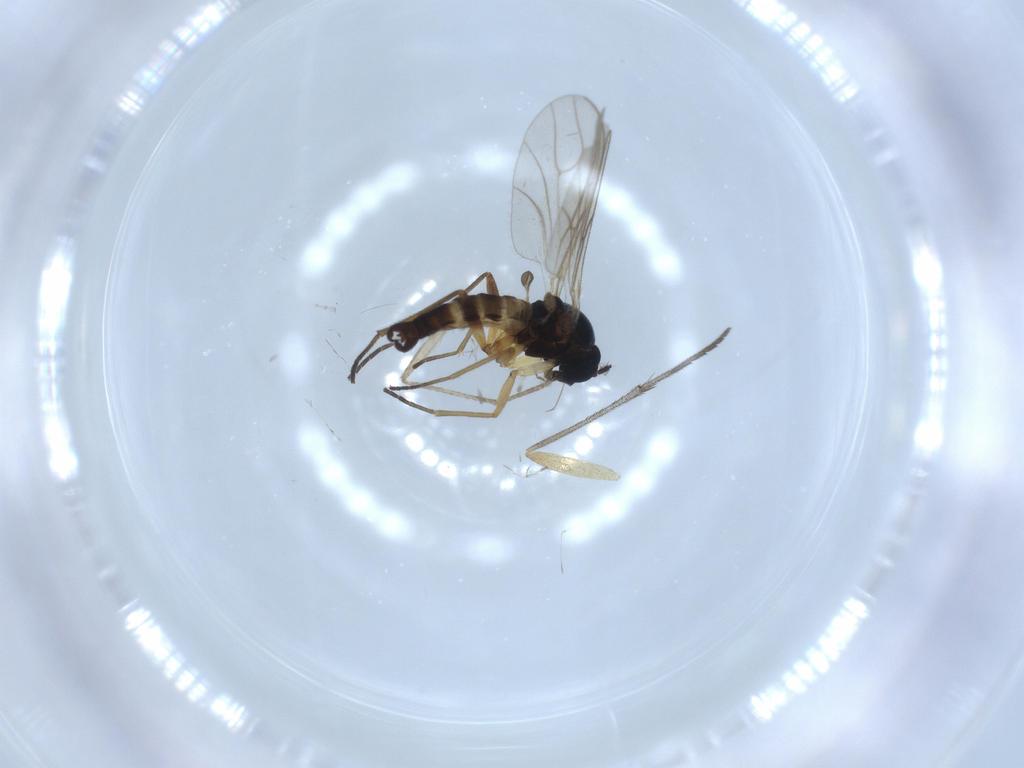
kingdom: Animalia
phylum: Arthropoda
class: Insecta
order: Diptera
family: Sciaridae
